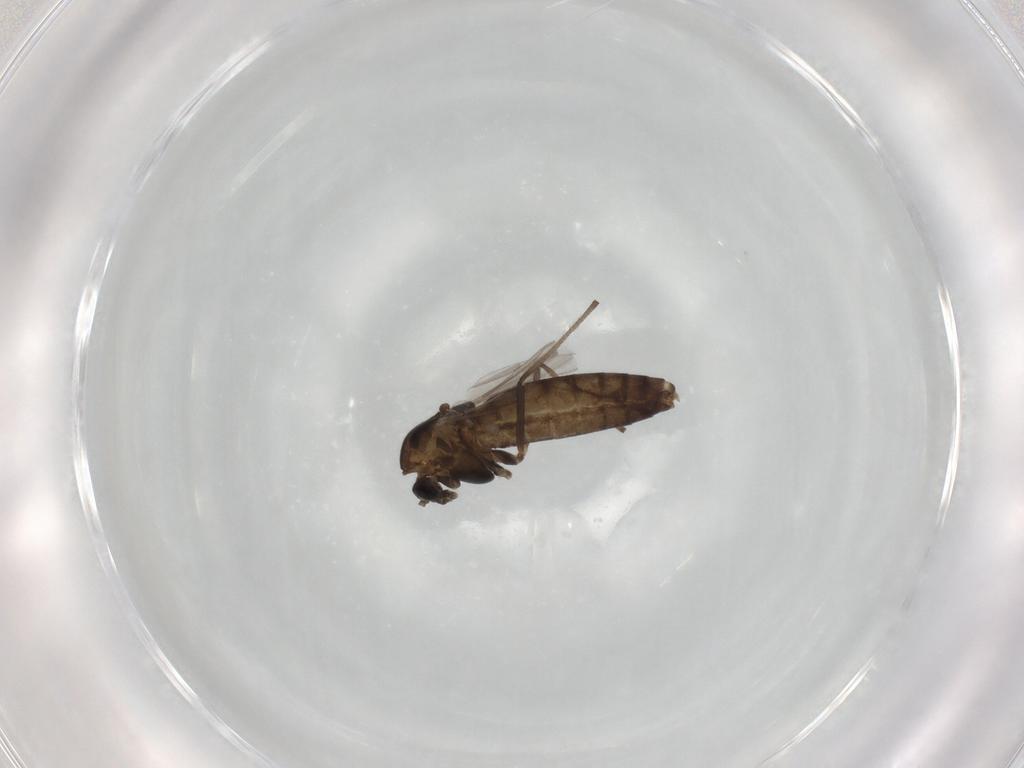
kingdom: Animalia
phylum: Arthropoda
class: Insecta
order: Diptera
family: Chironomidae
